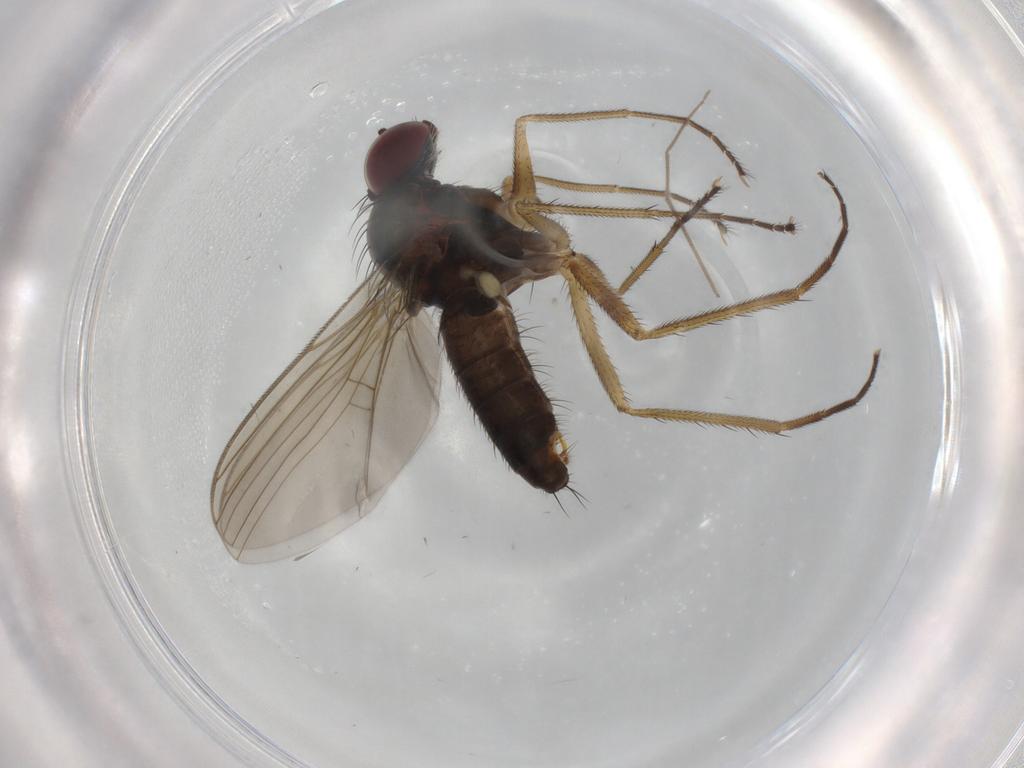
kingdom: Animalia
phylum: Arthropoda
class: Insecta
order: Diptera
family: Dolichopodidae
